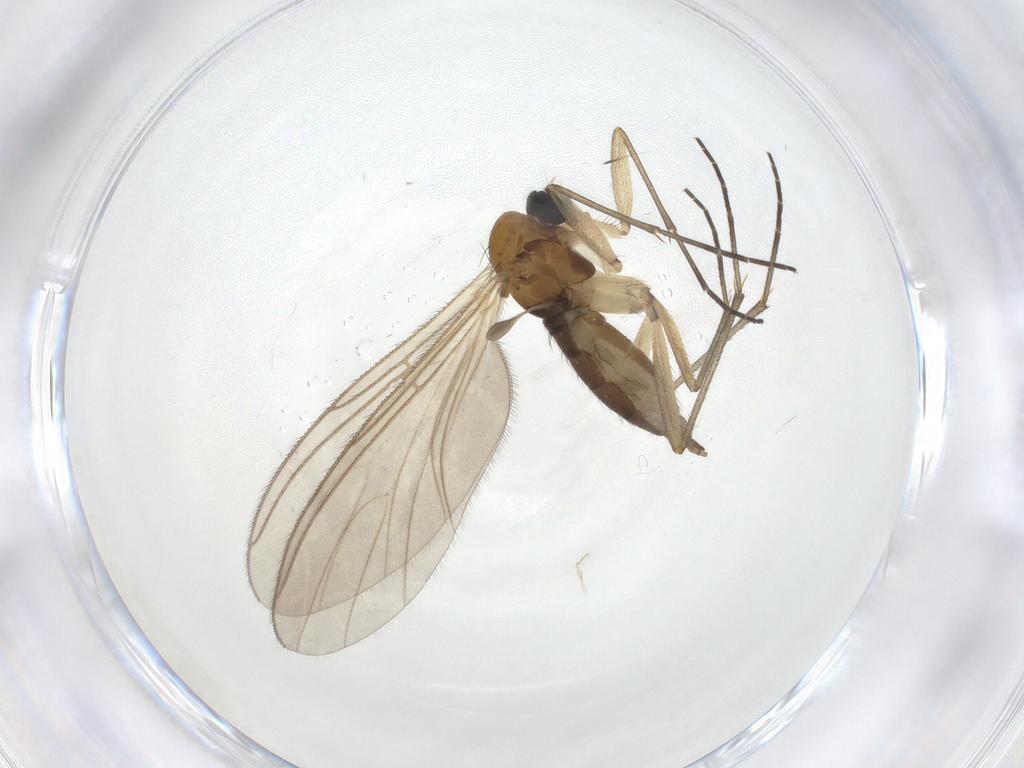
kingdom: Animalia
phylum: Arthropoda
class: Insecta
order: Diptera
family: Sciaridae
